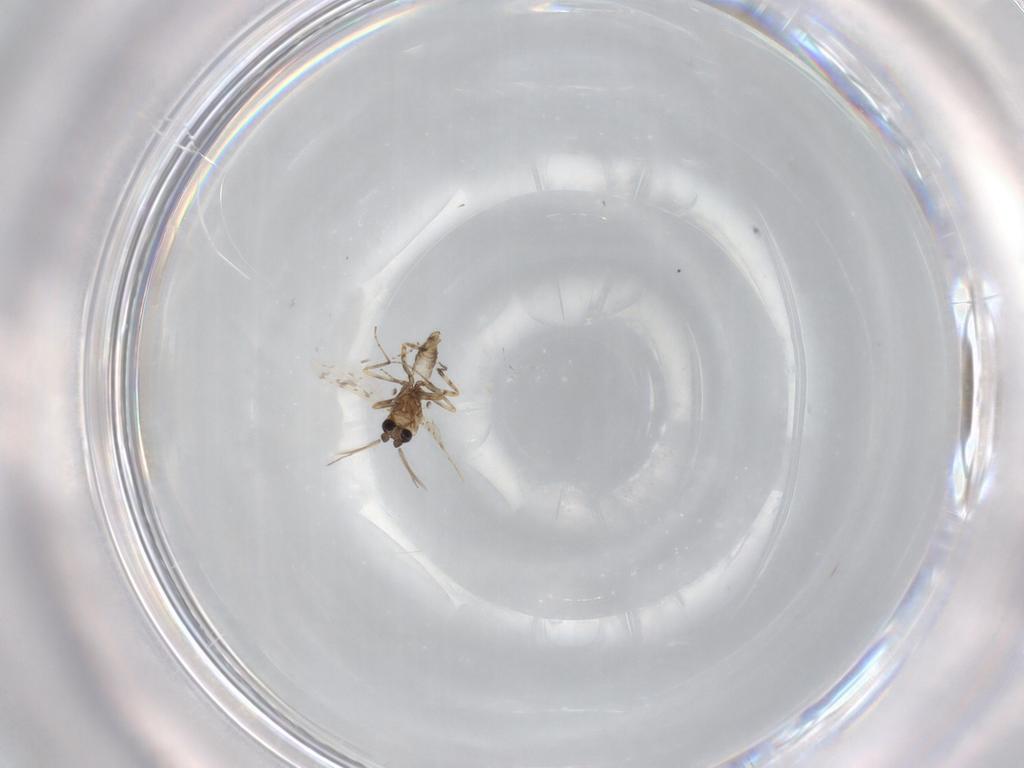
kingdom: Animalia
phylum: Arthropoda
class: Insecta
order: Diptera
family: Ceratopogonidae
